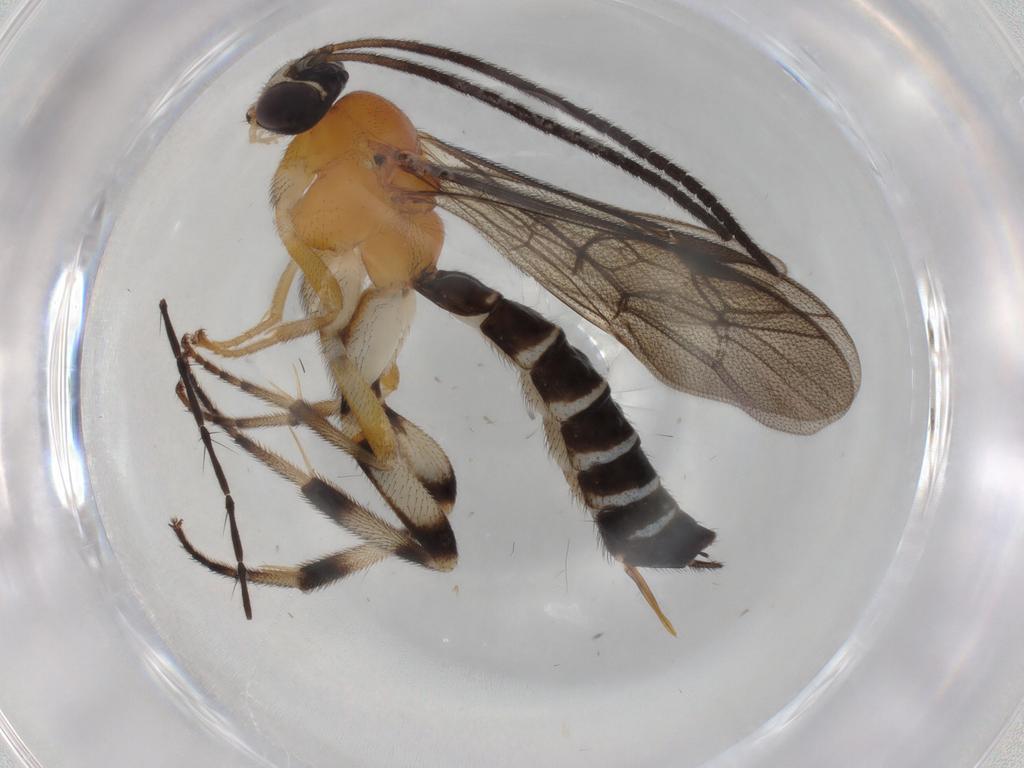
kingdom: Animalia
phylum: Arthropoda
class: Insecta
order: Hymenoptera
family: Ichneumonidae
